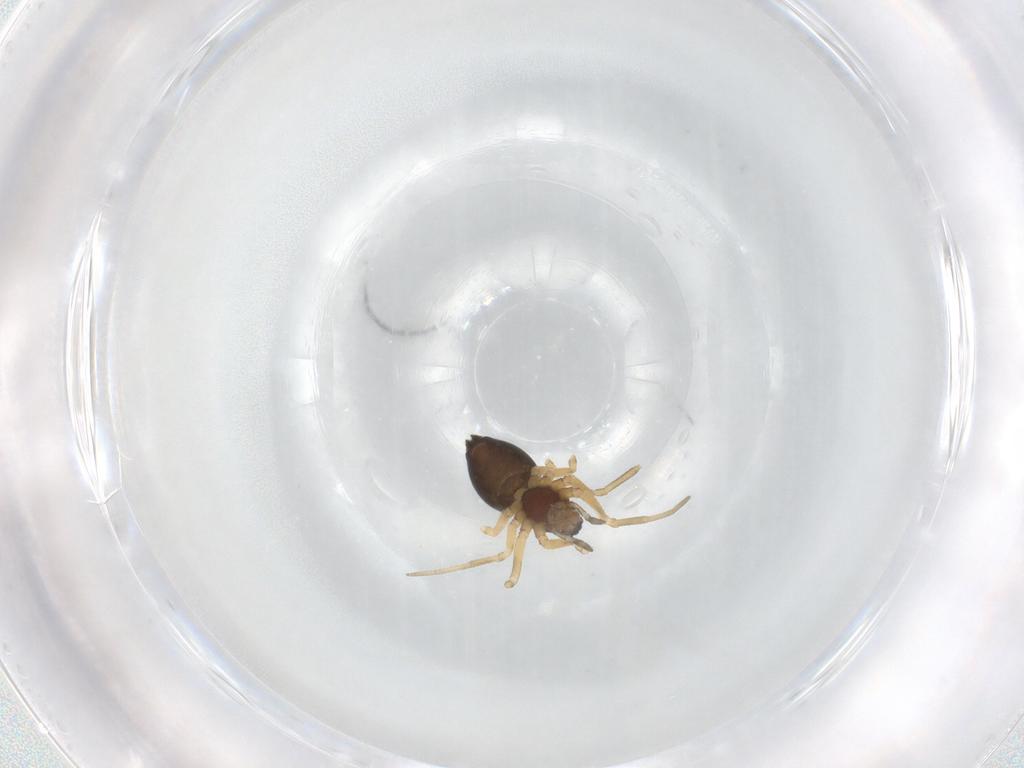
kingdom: Animalia
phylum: Arthropoda
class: Arachnida
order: Araneae
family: Linyphiidae
